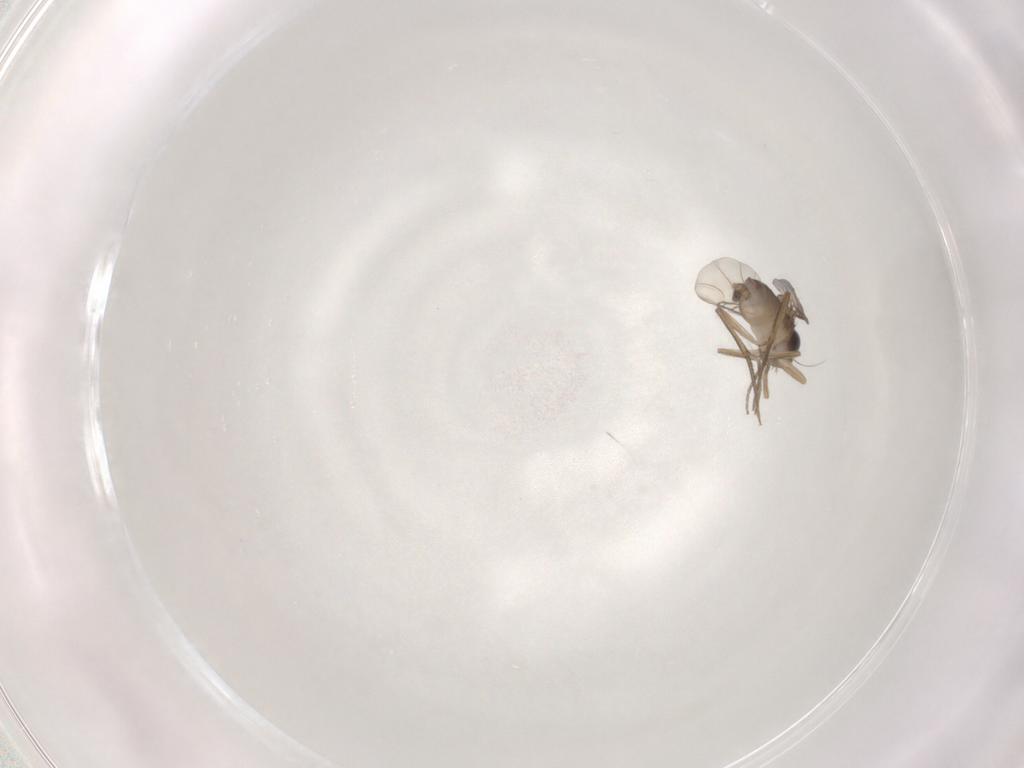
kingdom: Animalia
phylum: Arthropoda
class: Insecta
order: Diptera
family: Phoridae
